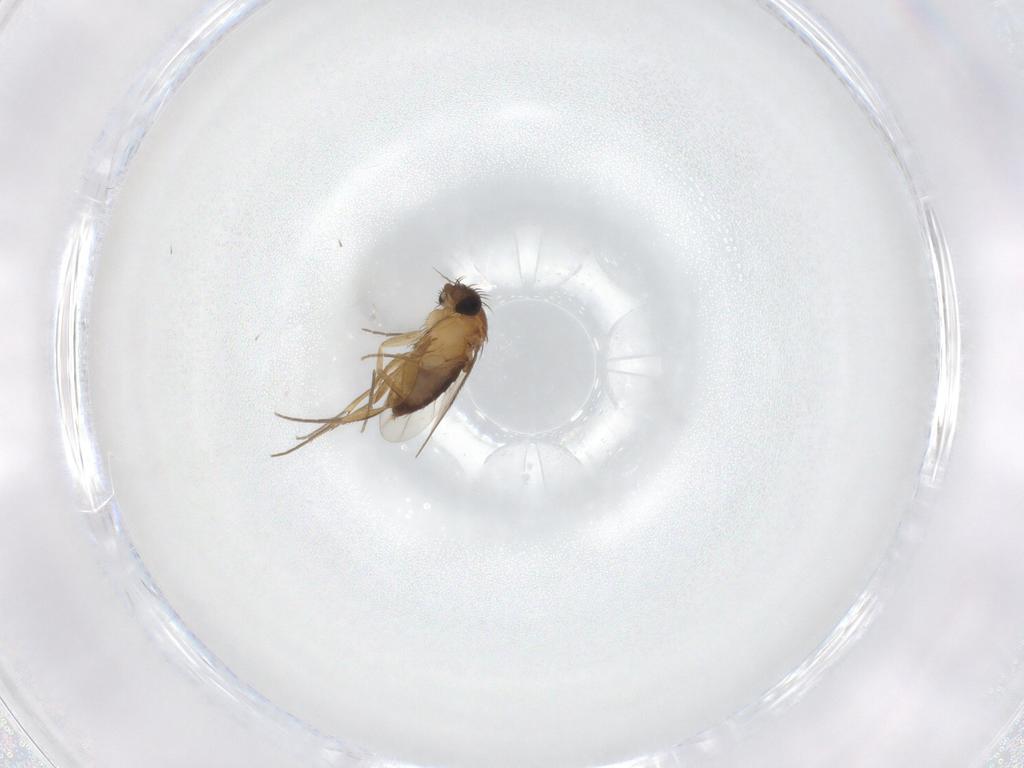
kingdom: Animalia
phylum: Arthropoda
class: Insecta
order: Diptera
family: Phoridae
